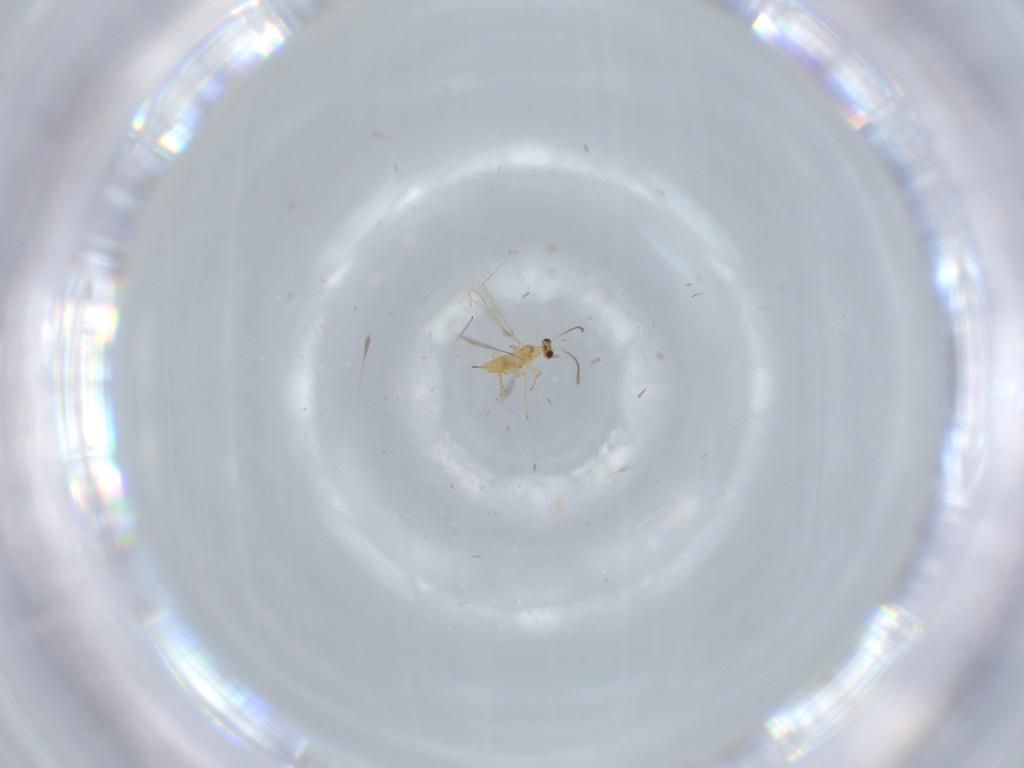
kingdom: Animalia
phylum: Arthropoda
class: Insecta
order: Hymenoptera
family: Mymaridae
